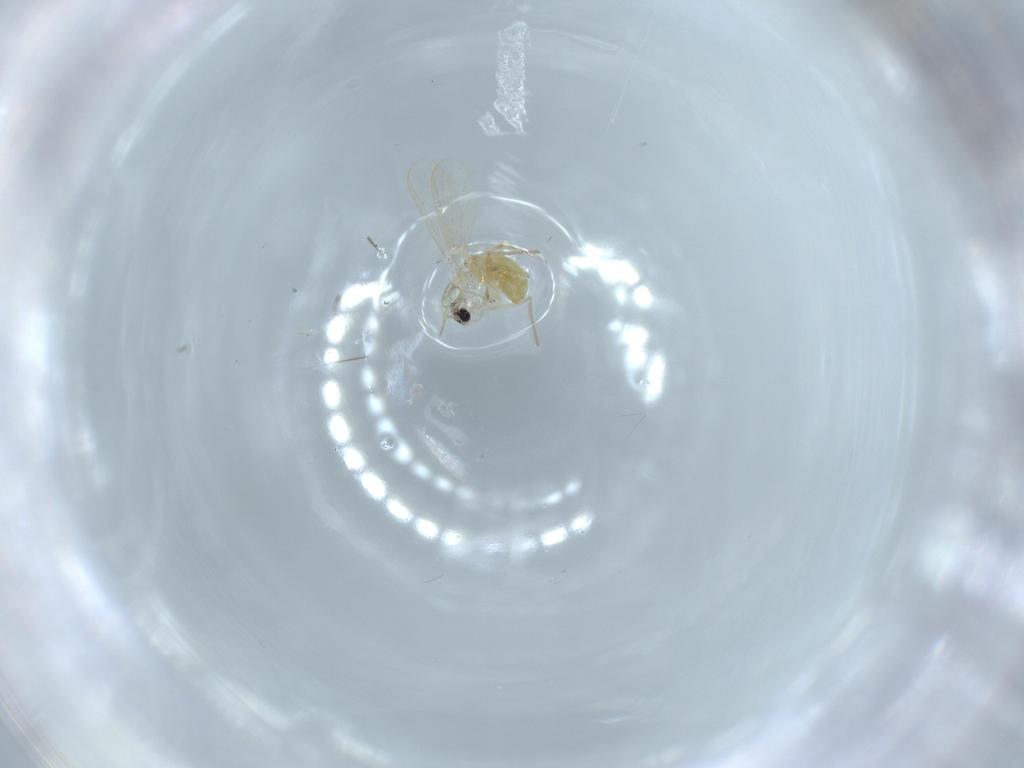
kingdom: Animalia
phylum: Arthropoda
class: Insecta
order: Diptera
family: Chironomidae
